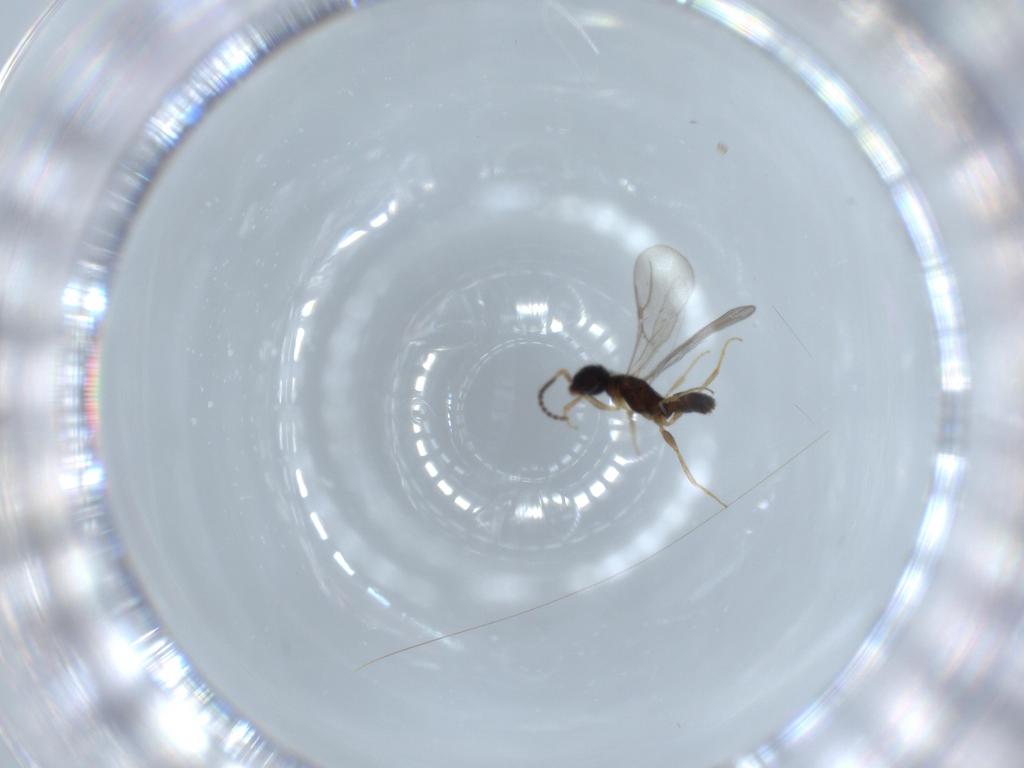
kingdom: Animalia
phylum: Arthropoda
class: Insecta
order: Hymenoptera
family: Bethylidae
